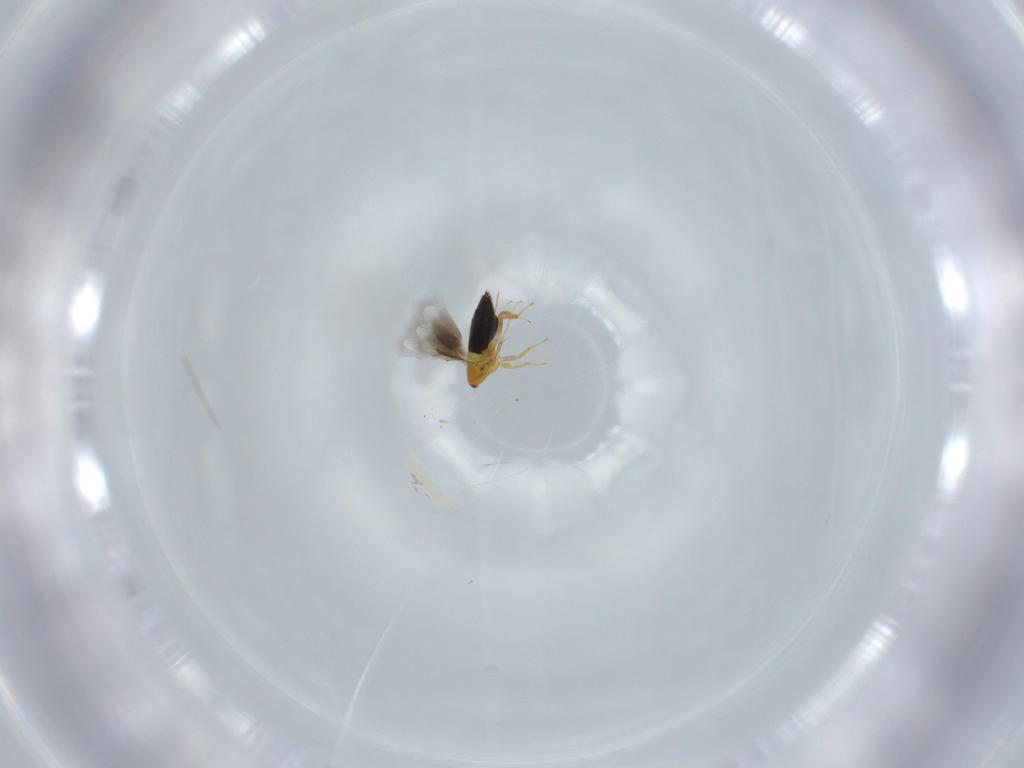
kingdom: Animalia
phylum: Arthropoda
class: Insecta
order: Hymenoptera
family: Signiphoridae
